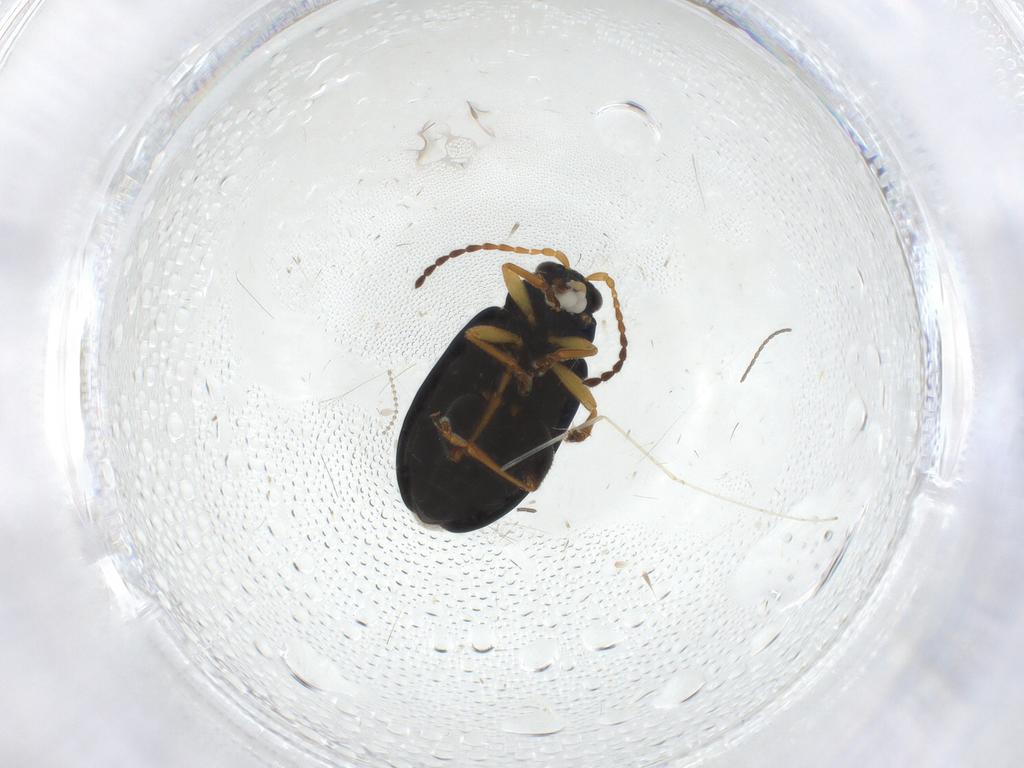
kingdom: Animalia
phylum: Arthropoda
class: Insecta
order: Coleoptera
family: Chrysomelidae
